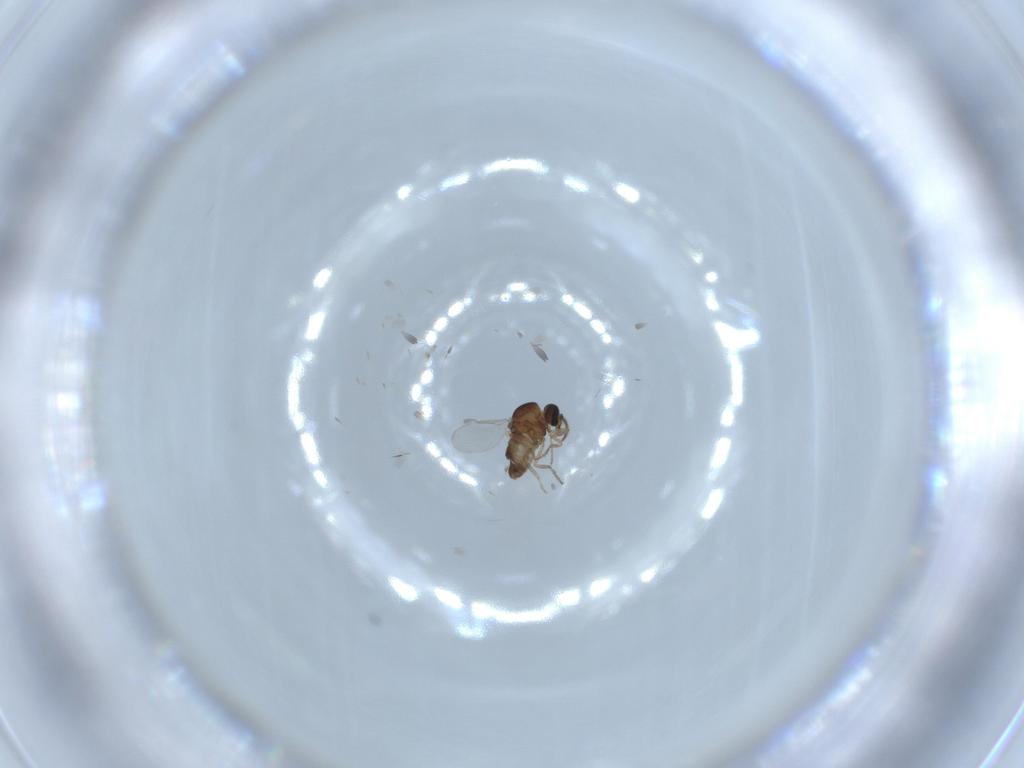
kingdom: Animalia
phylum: Arthropoda
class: Insecta
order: Diptera
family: Ceratopogonidae
